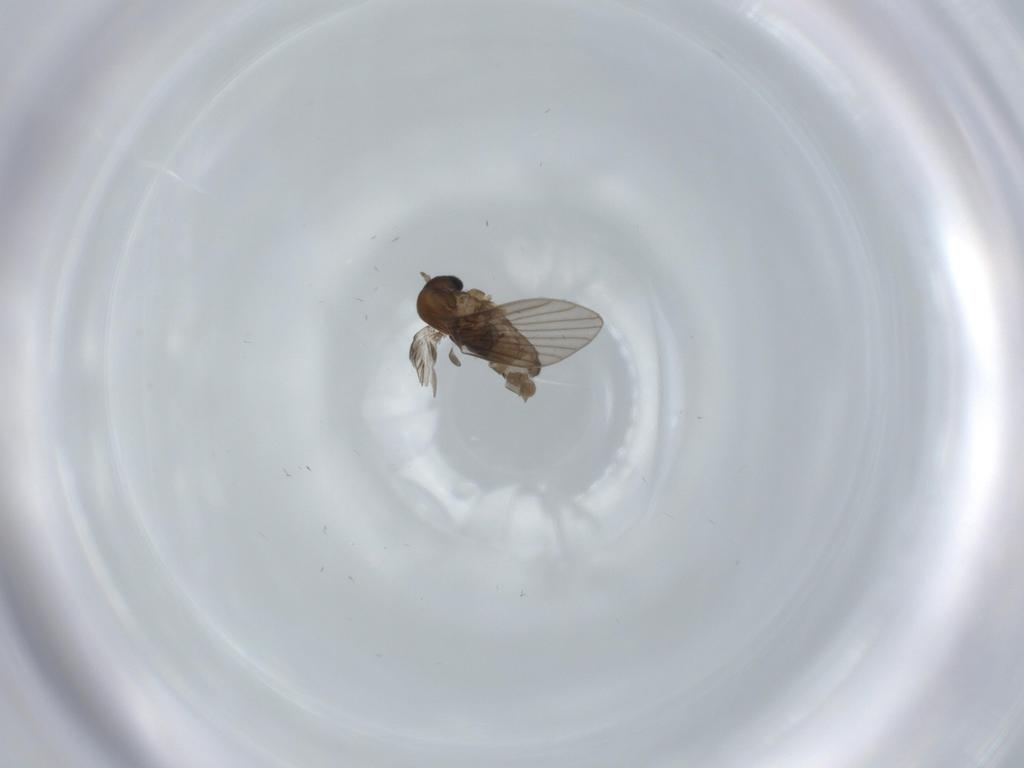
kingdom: Animalia
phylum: Arthropoda
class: Insecta
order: Diptera
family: Psychodidae
